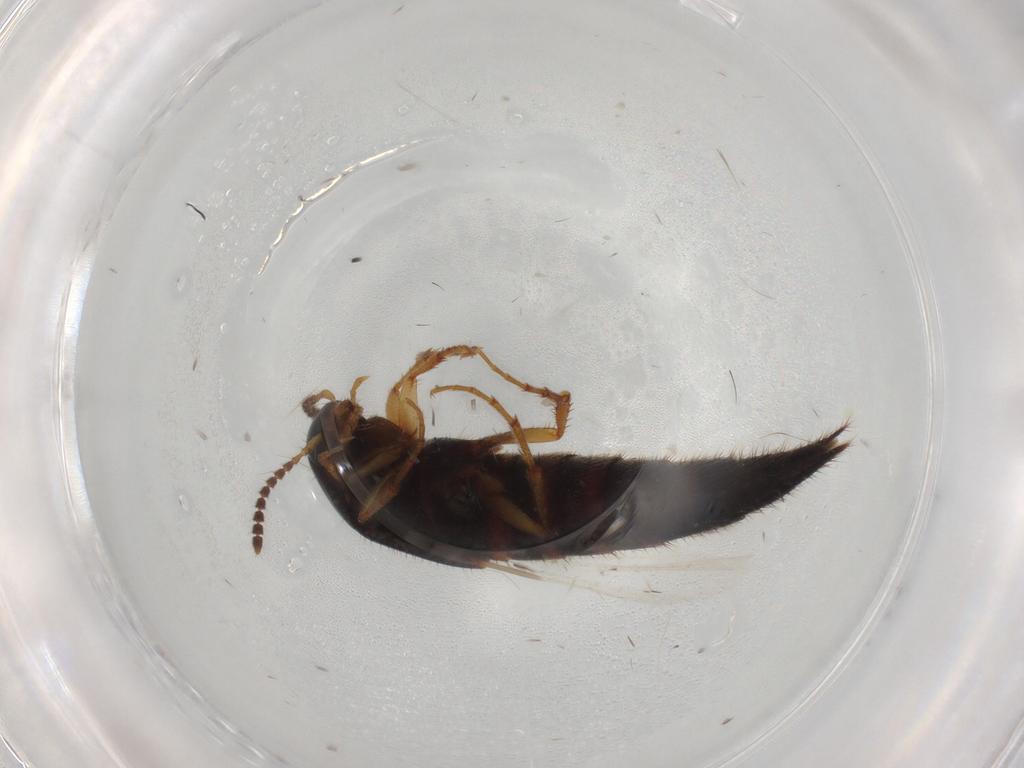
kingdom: Animalia
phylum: Arthropoda
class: Insecta
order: Coleoptera
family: Staphylinidae
